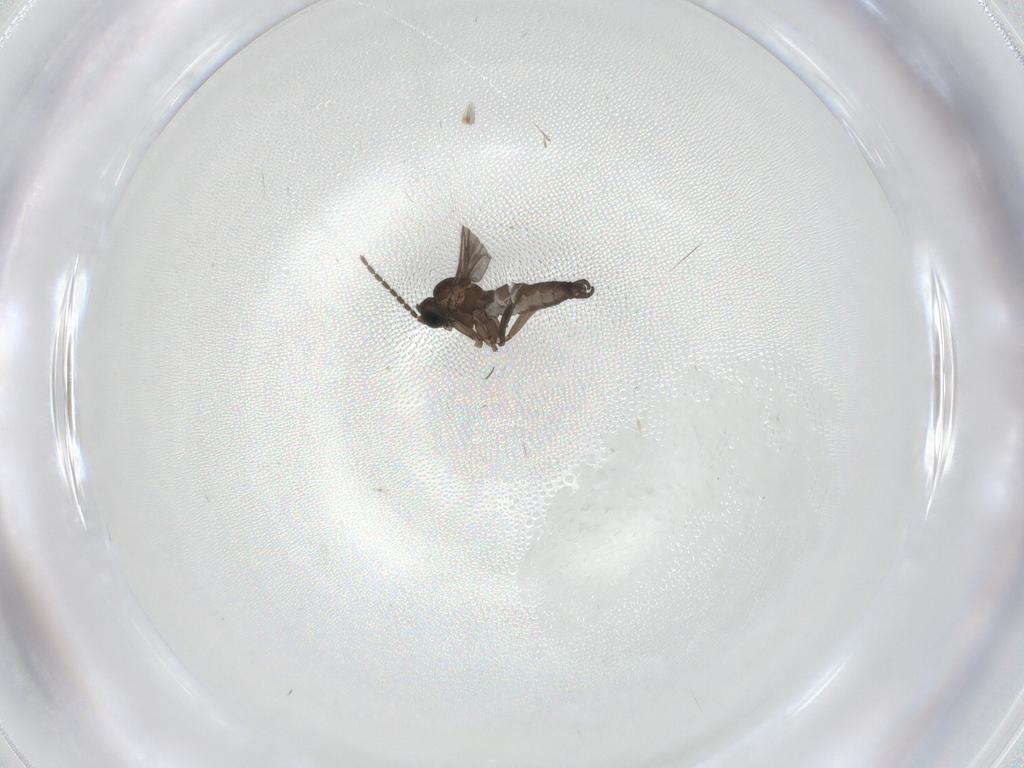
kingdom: Animalia
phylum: Arthropoda
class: Insecta
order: Diptera
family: Sciaridae
